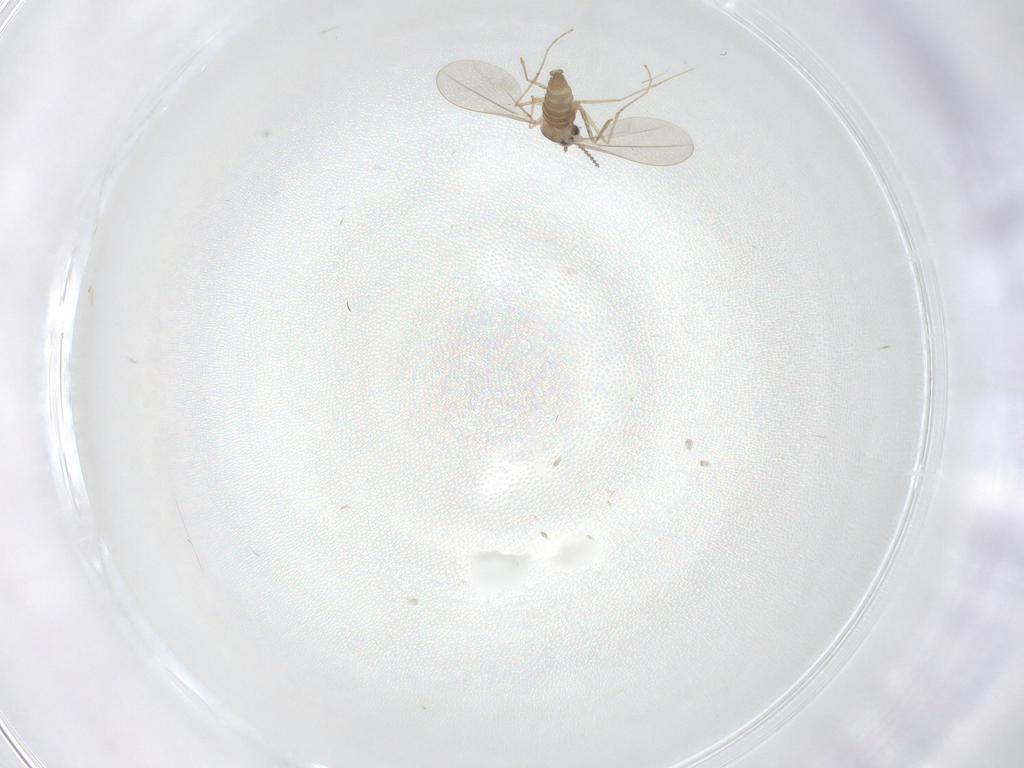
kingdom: Animalia
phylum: Arthropoda
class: Insecta
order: Diptera
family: Cecidomyiidae
